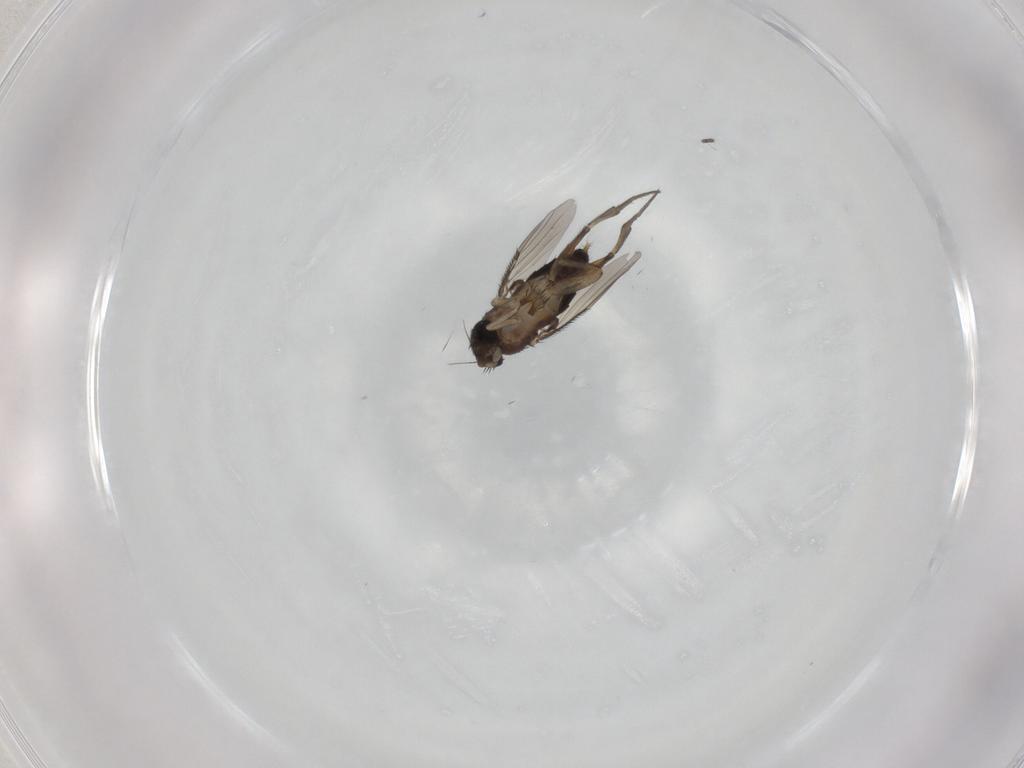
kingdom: Animalia
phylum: Arthropoda
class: Insecta
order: Diptera
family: Phoridae
